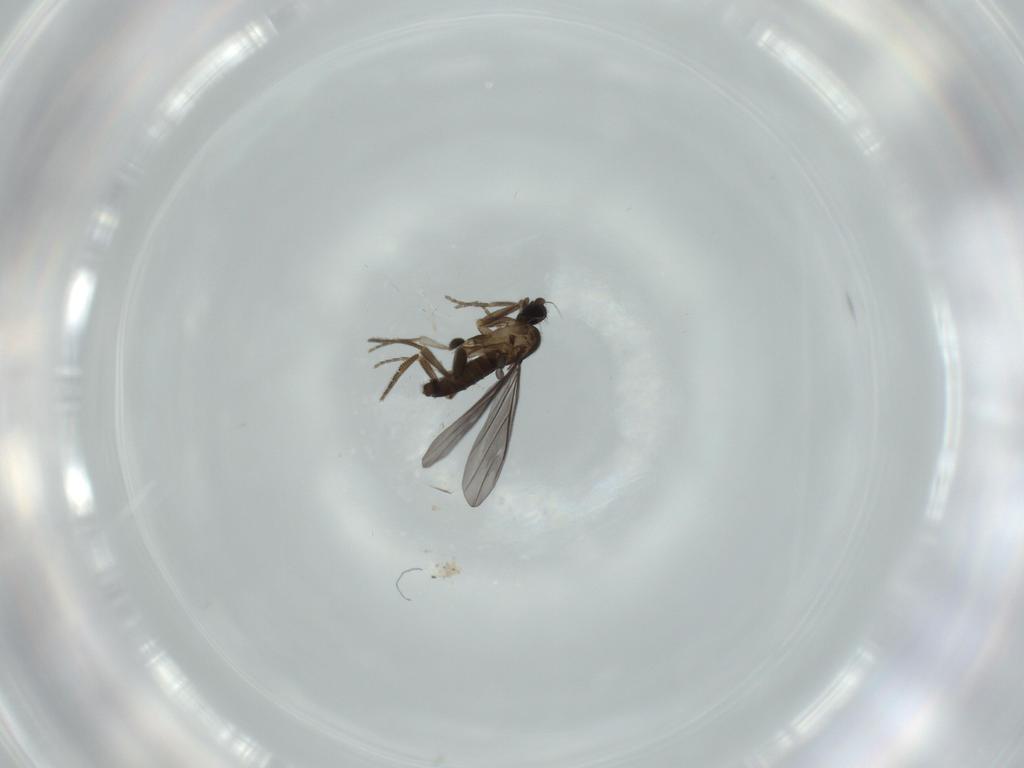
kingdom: Animalia
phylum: Arthropoda
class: Insecta
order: Diptera
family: Phoridae
